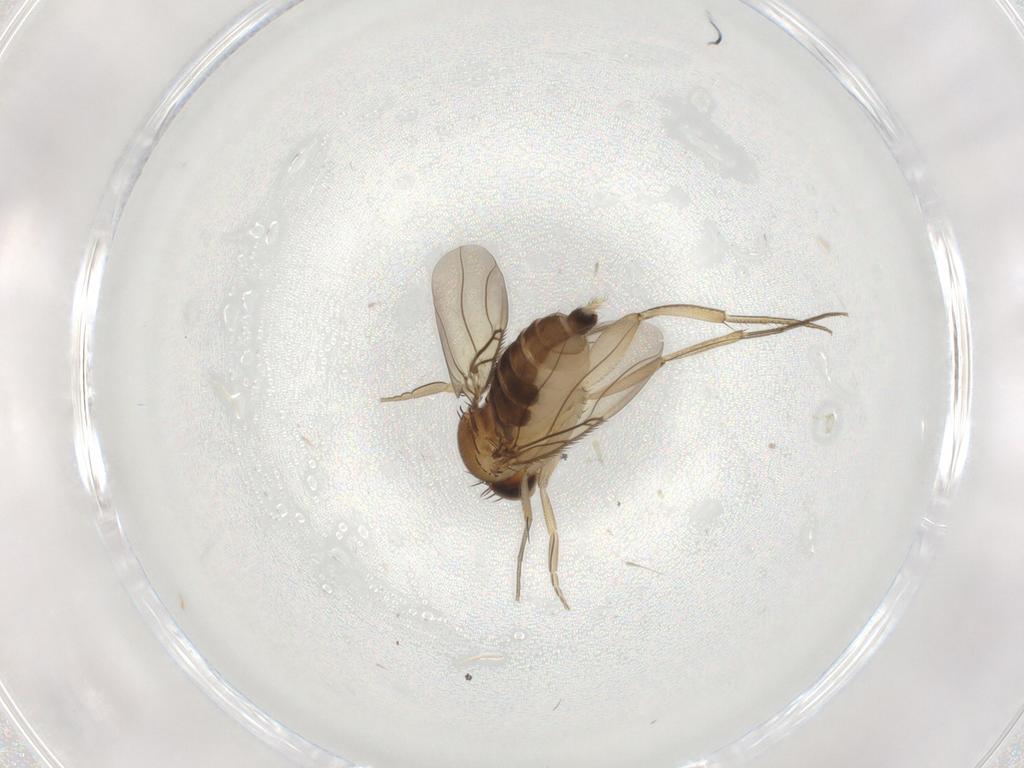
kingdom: Animalia
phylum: Arthropoda
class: Insecta
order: Diptera
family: Phoridae
